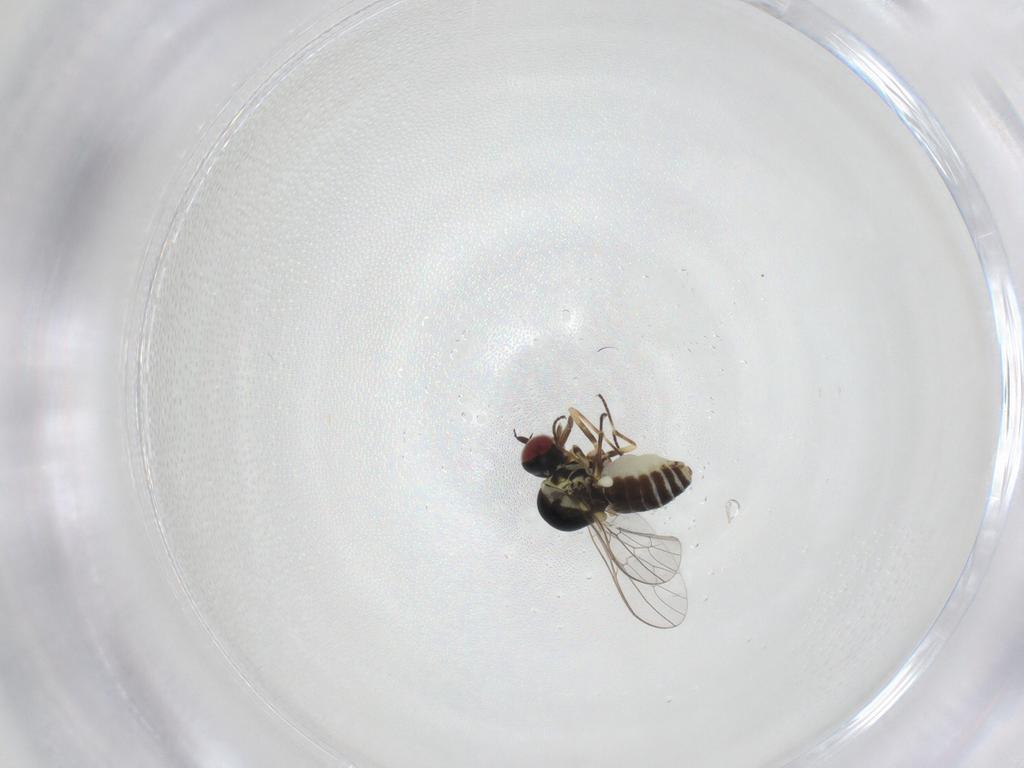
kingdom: Animalia
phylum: Arthropoda
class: Insecta
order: Diptera
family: Bombyliidae
